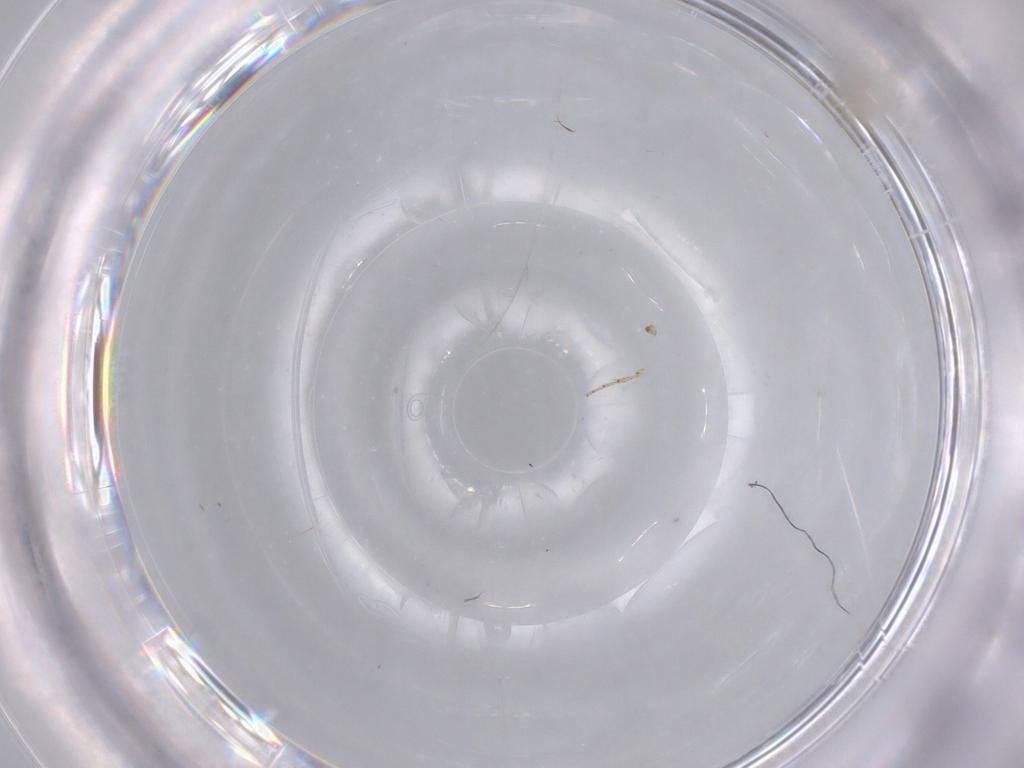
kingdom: Animalia
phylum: Arthropoda
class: Insecta
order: Diptera
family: Ceratopogonidae
